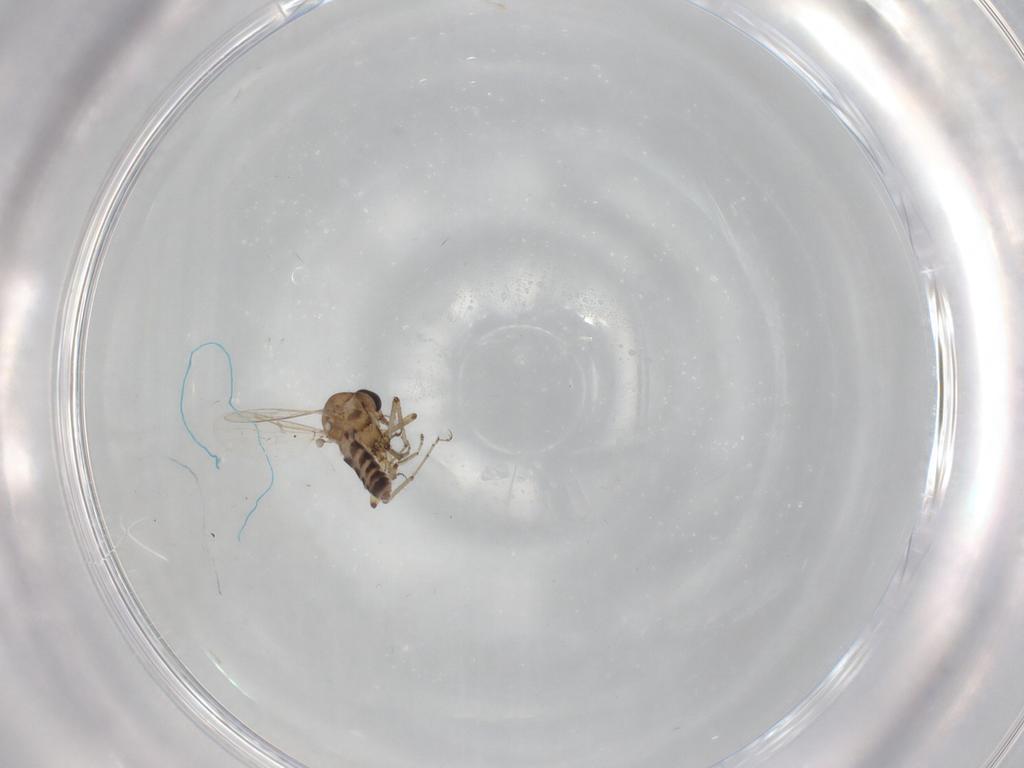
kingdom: Animalia
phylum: Arthropoda
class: Insecta
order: Diptera
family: Ceratopogonidae
